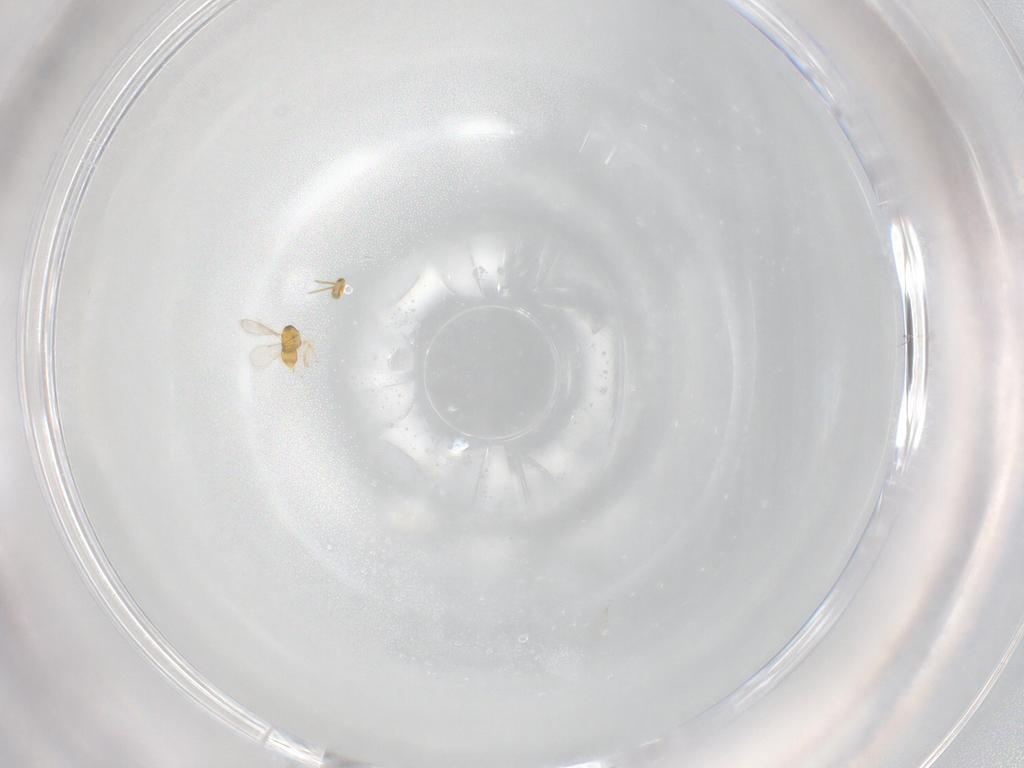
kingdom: Animalia
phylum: Arthropoda
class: Insecta
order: Hymenoptera
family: Aphelinidae
